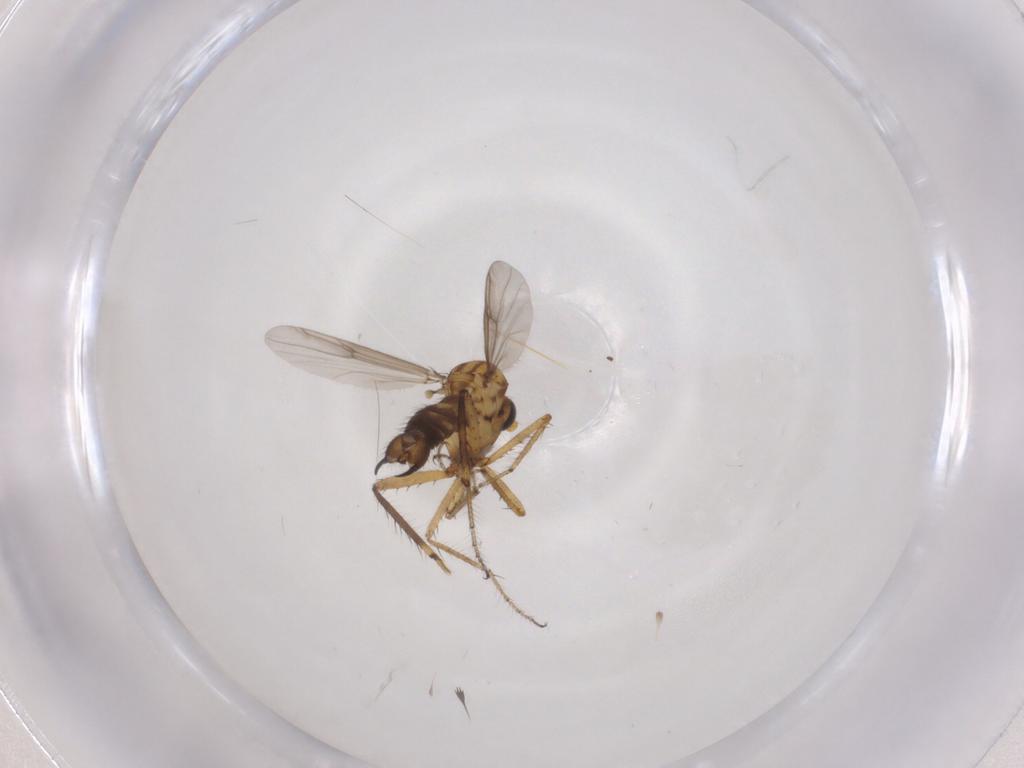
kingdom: Animalia
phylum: Arthropoda
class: Insecta
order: Diptera
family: Ceratopogonidae
